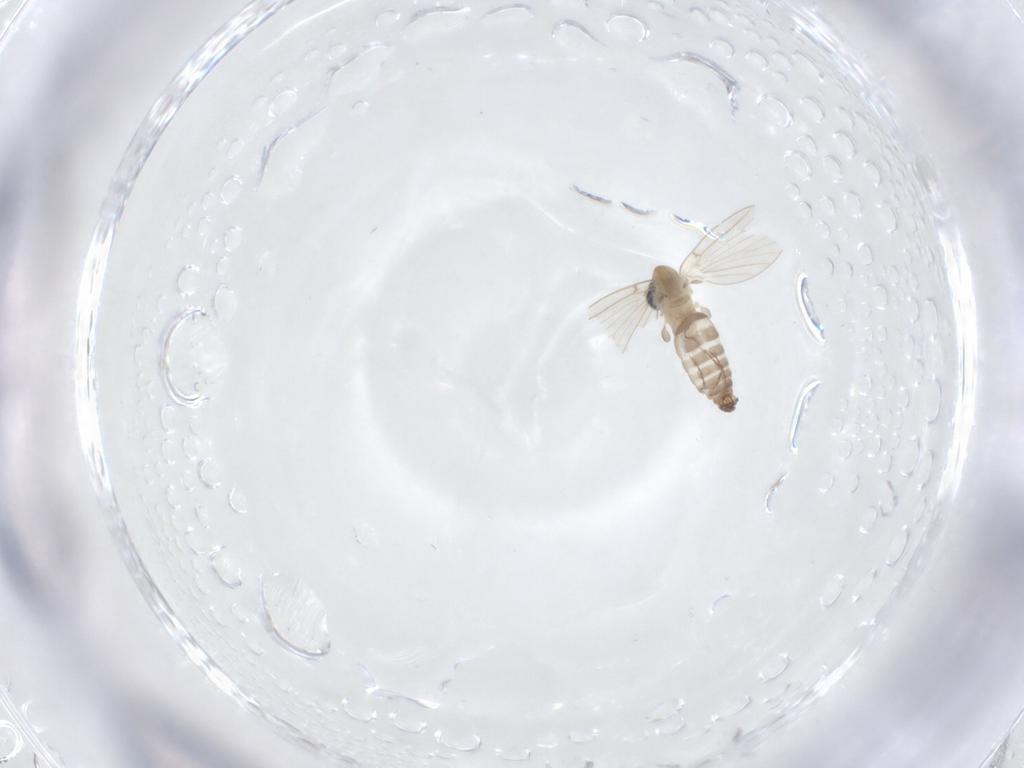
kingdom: Animalia
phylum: Arthropoda
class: Insecta
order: Diptera
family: Psychodidae
